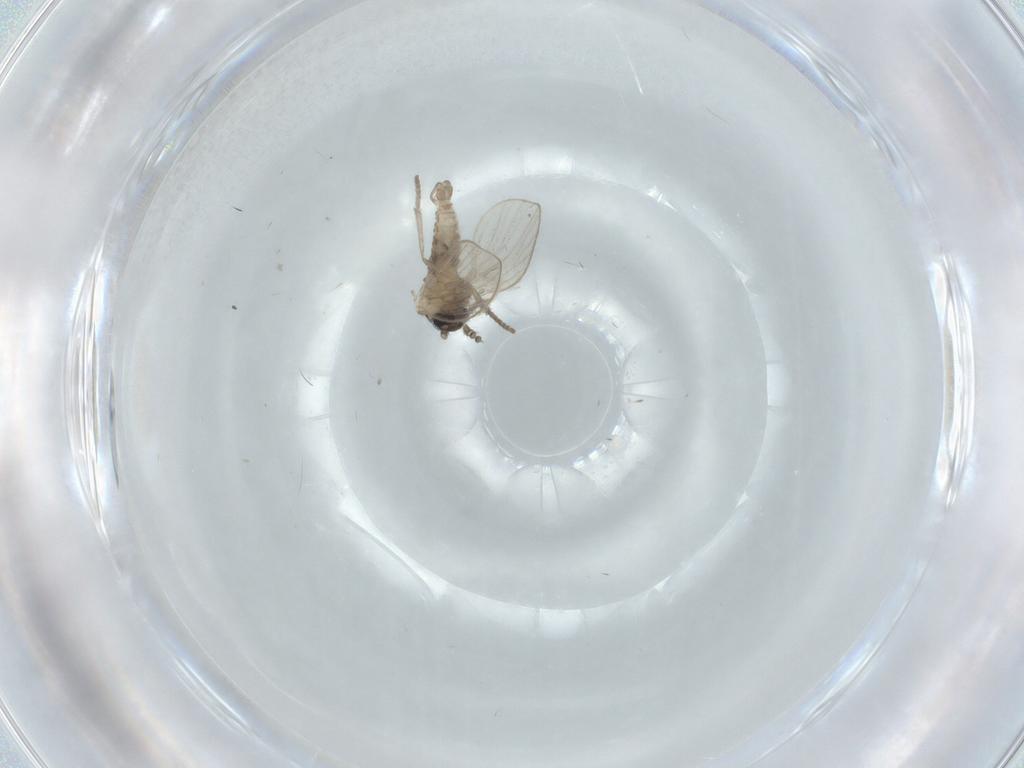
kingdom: Animalia
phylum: Arthropoda
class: Insecta
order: Diptera
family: Psychodidae
